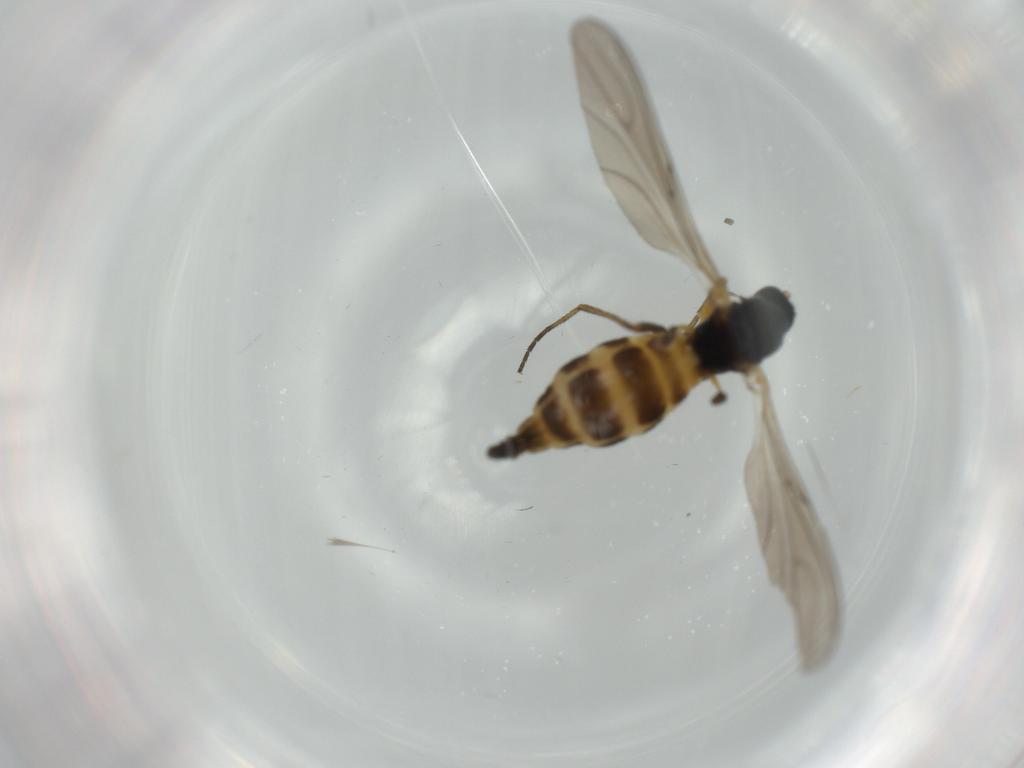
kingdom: Animalia
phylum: Arthropoda
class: Insecta
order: Diptera
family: Sciaridae
